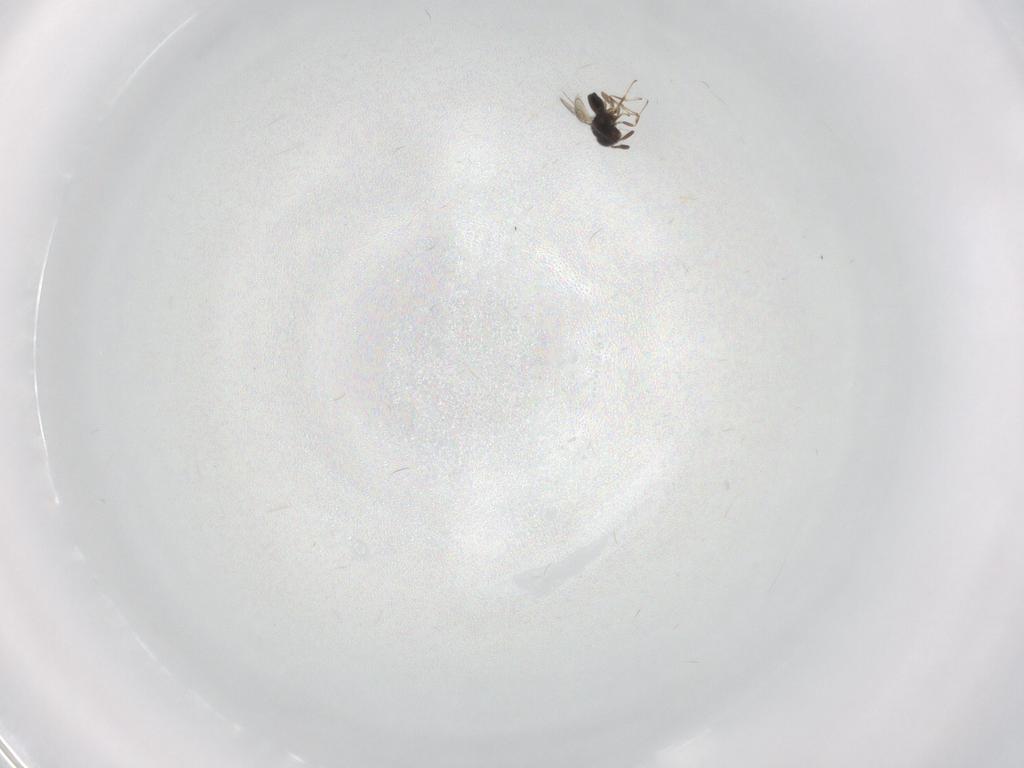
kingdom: Animalia
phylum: Arthropoda
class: Insecta
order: Hymenoptera
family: Scelionidae
